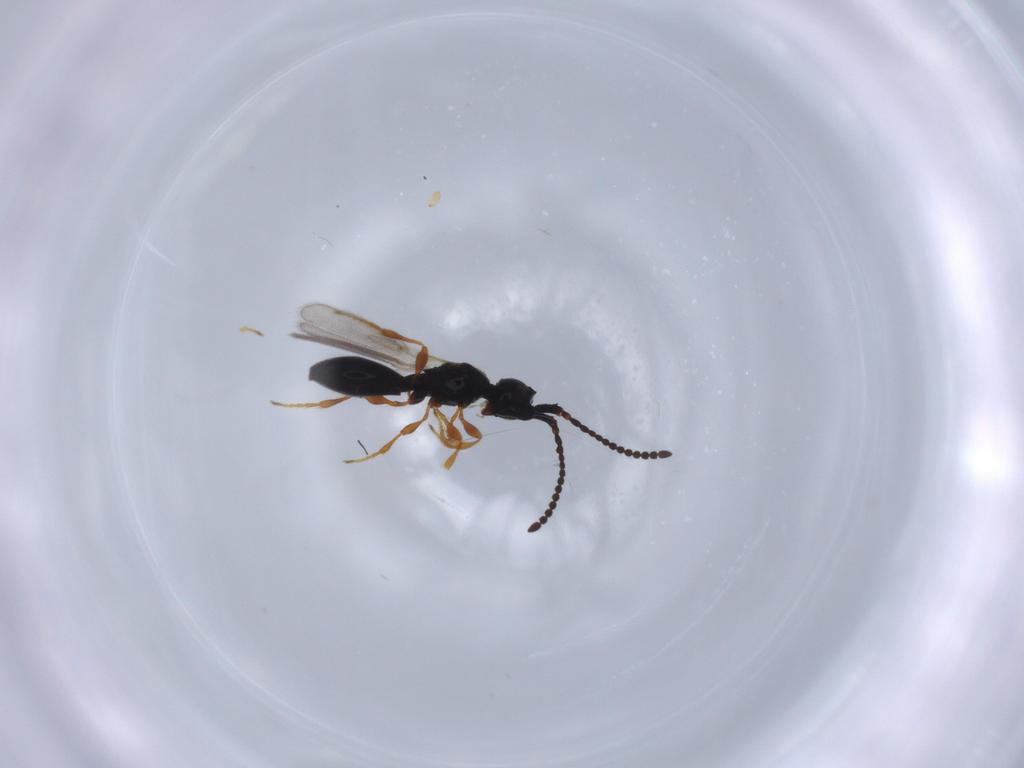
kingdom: Animalia
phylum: Arthropoda
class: Insecta
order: Hymenoptera
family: Diapriidae
